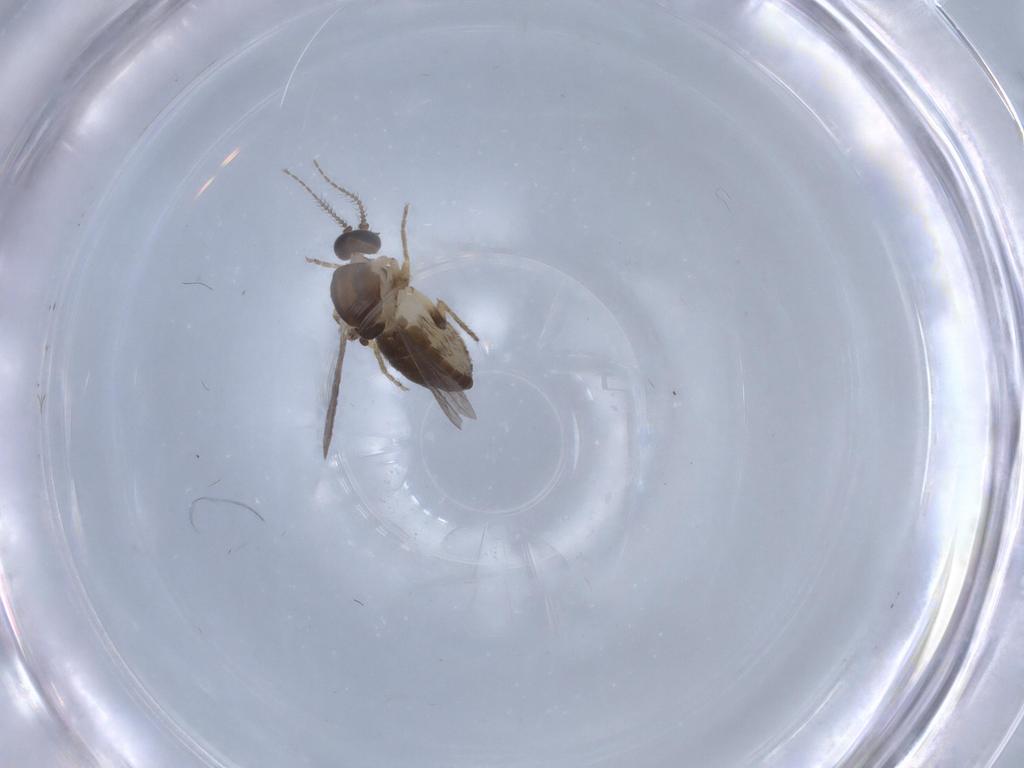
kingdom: Animalia
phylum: Arthropoda
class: Insecta
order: Diptera
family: Ceratopogonidae
